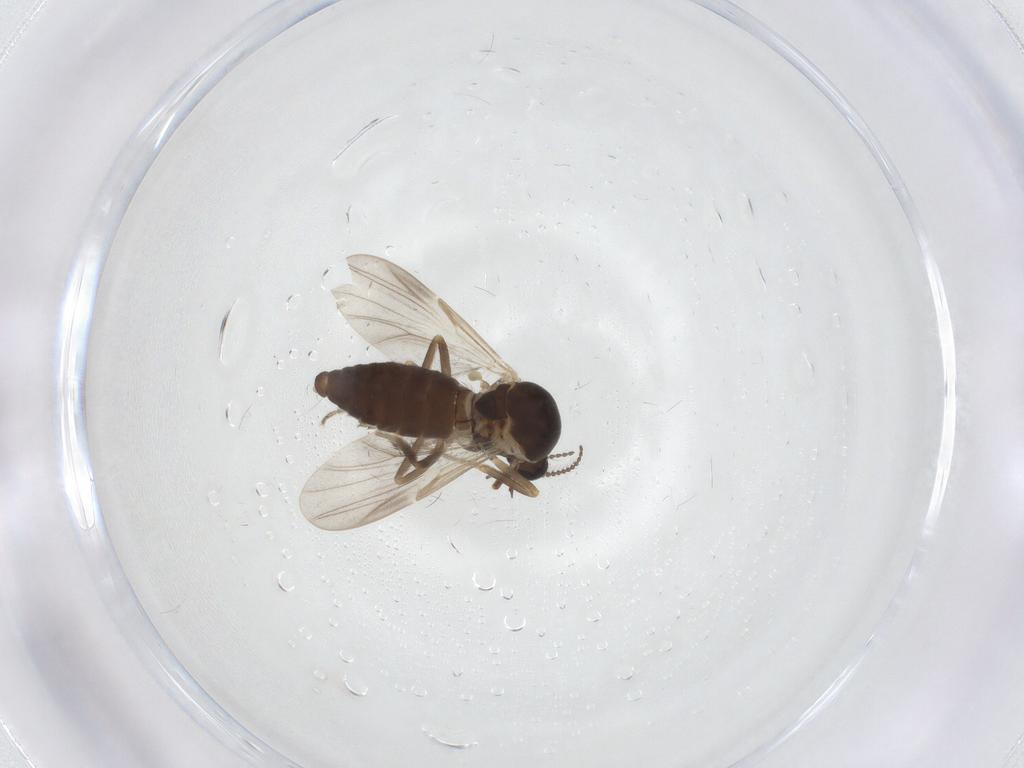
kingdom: Animalia
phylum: Arthropoda
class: Insecta
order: Diptera
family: Ceratopogonidae
